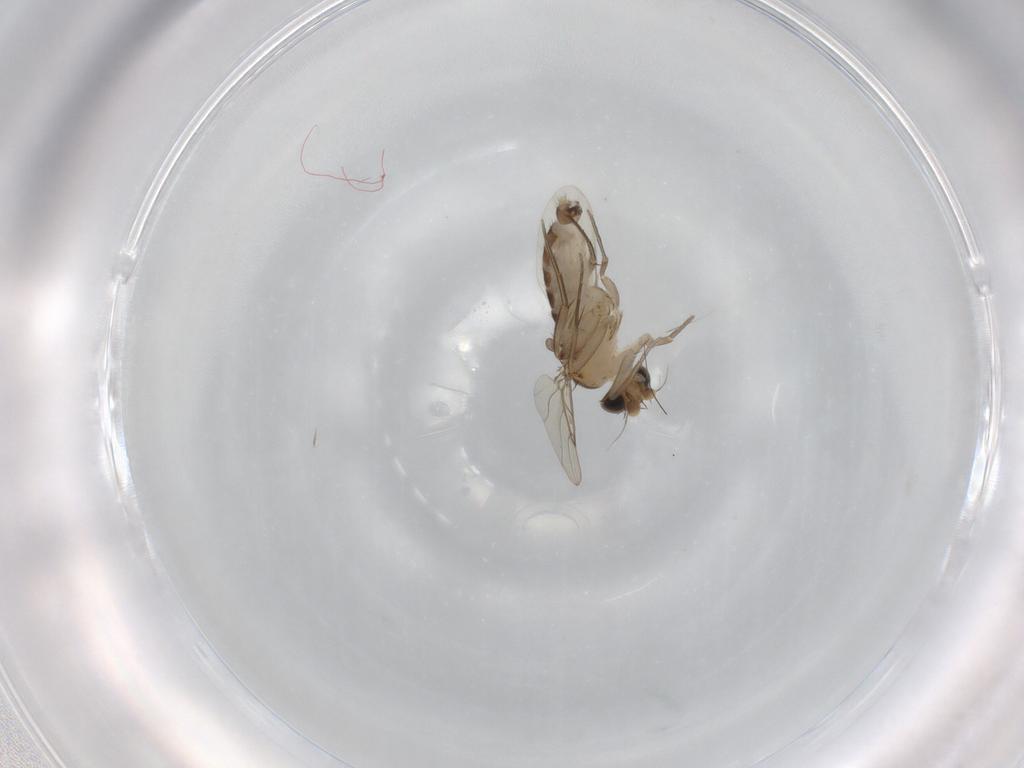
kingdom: Animalia
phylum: Arthropoda
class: Insecta
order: Diptera
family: Phoridae
